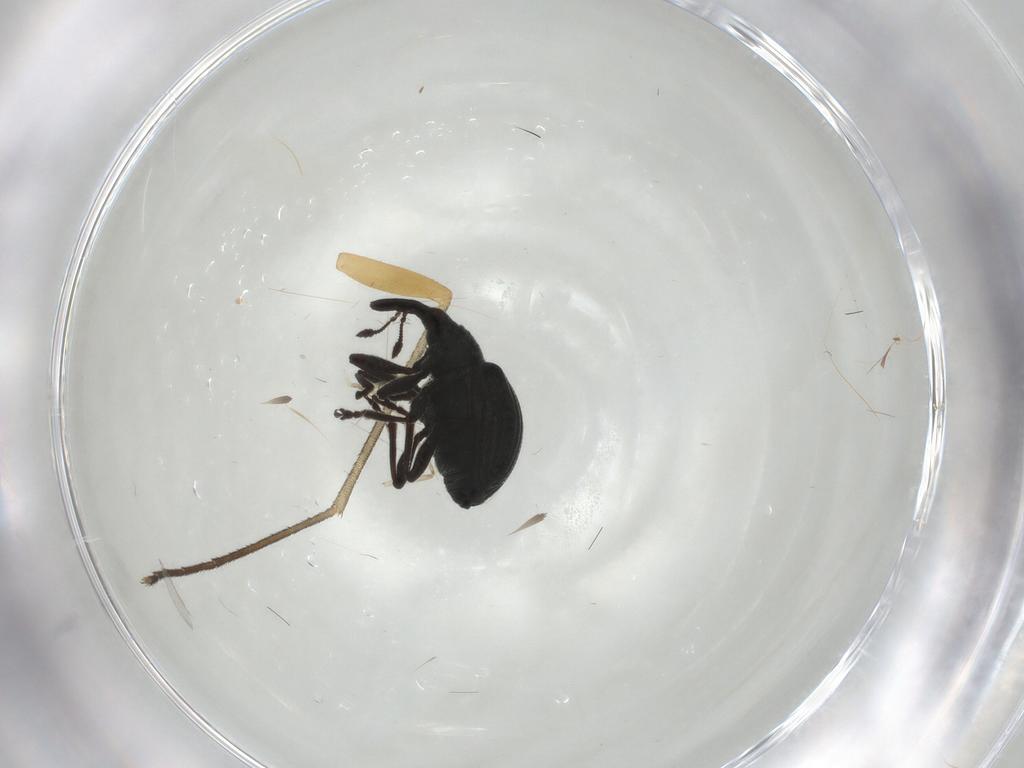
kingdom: Animalia
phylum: Arthropoda
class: Insecta
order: Coleoptera
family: Brentidae
